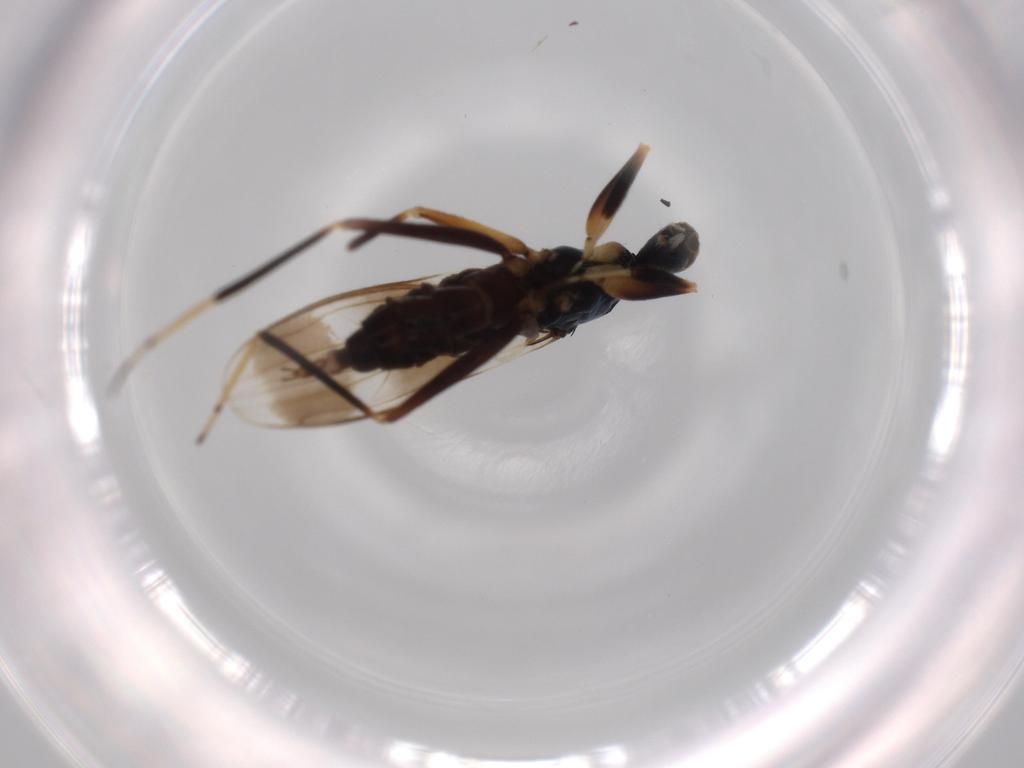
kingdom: Animalia
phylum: Arthropoda
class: Insecta
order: Diptera
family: Hybotidae
